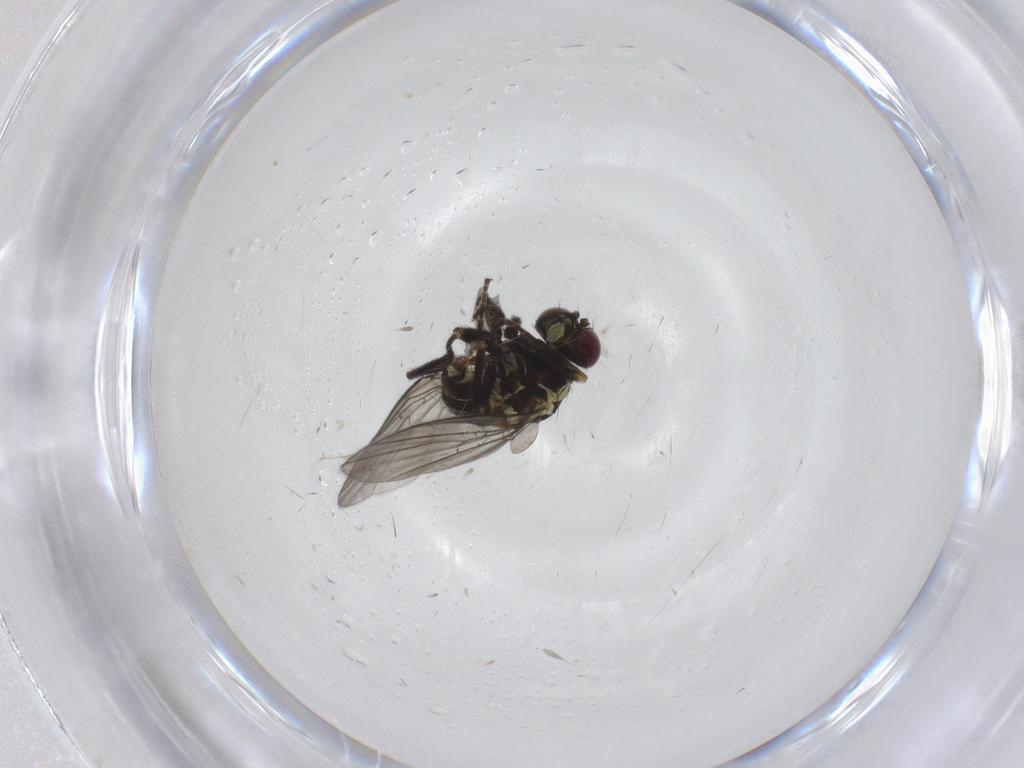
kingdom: Animalia
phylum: Arthropoda
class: Insecta
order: Diptera
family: Agromyzidae
